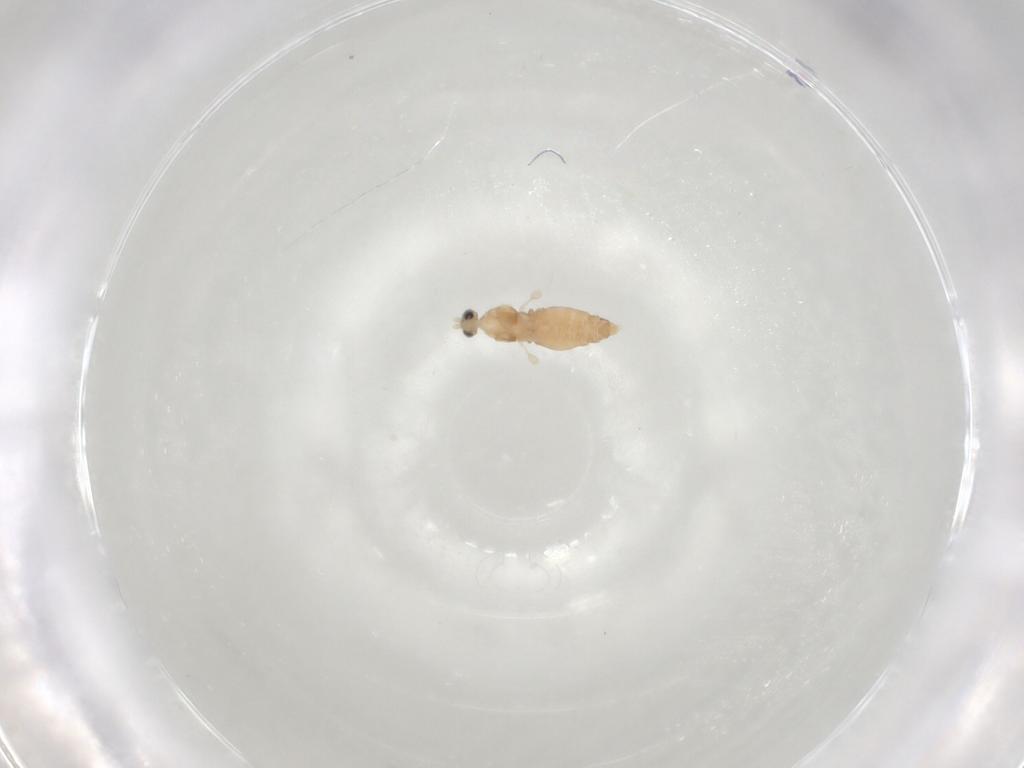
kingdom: Animalia
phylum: Arthropoda
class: Insecta
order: Diptera
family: Cecidomyiidae
